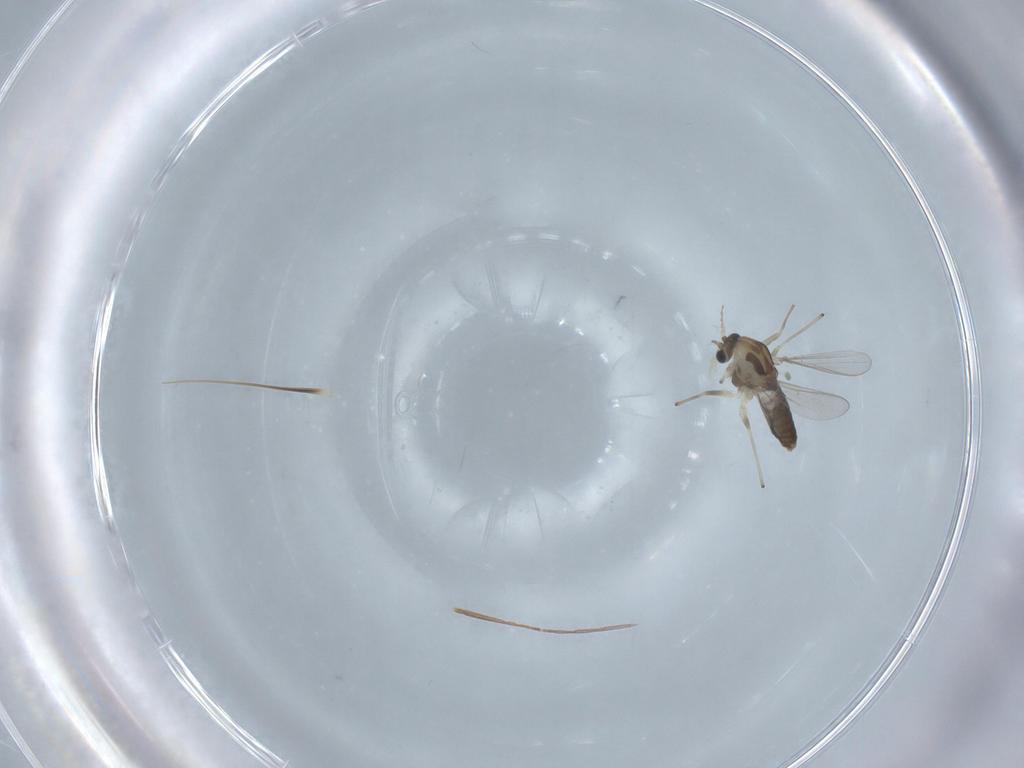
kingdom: Animalia
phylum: Arthropoda
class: Insecta
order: Diptera
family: Chironomidae
